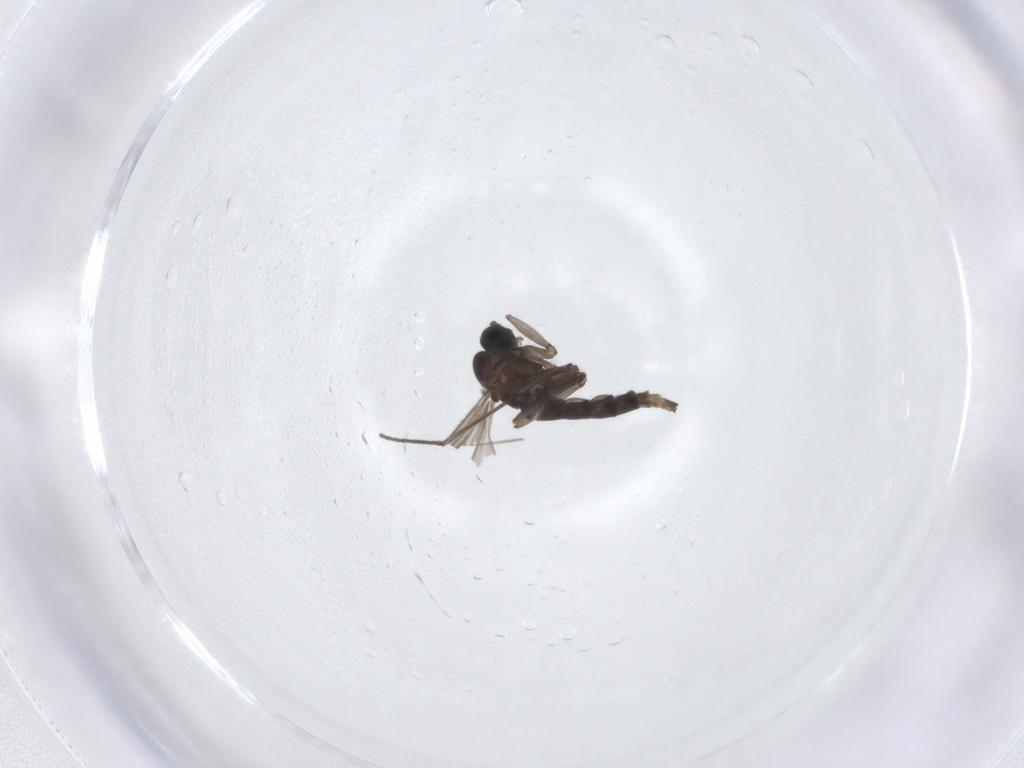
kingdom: Animalia
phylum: Arthropoda
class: Insecta
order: Diptera
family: Sciaridae
